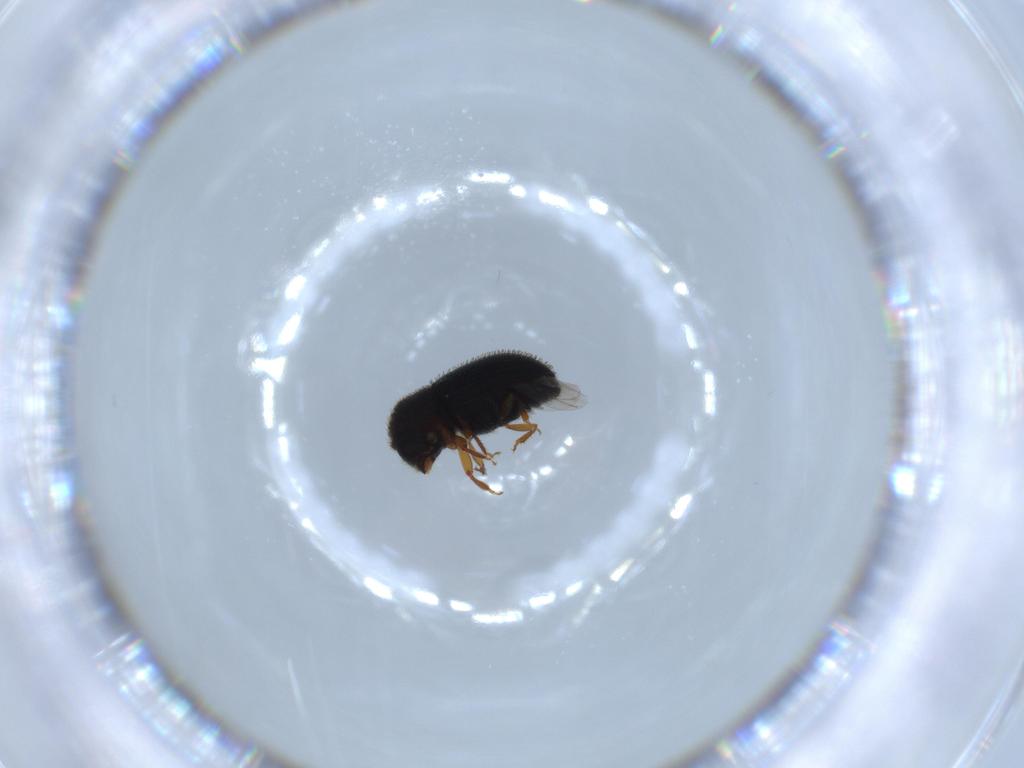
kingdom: Animalia
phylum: Arthropoda
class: Insecta
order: Coleoptera
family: Curculionidae
